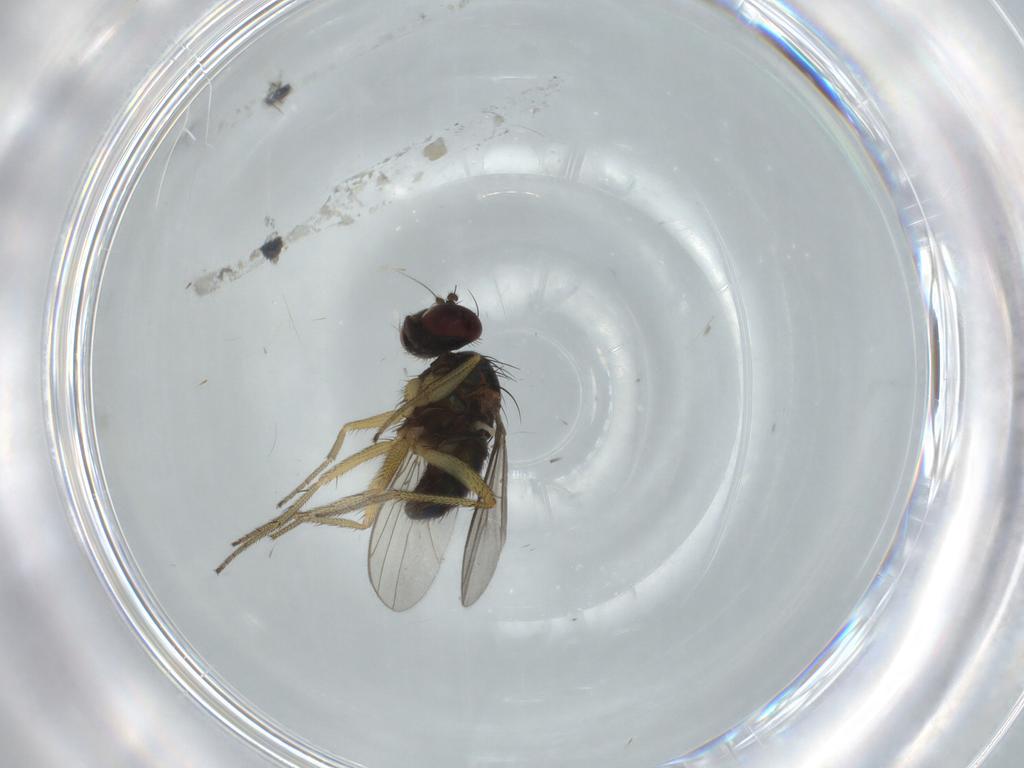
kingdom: Animalia
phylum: Arthropoda
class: Insecta
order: Diptera
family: Dolichopodidae
